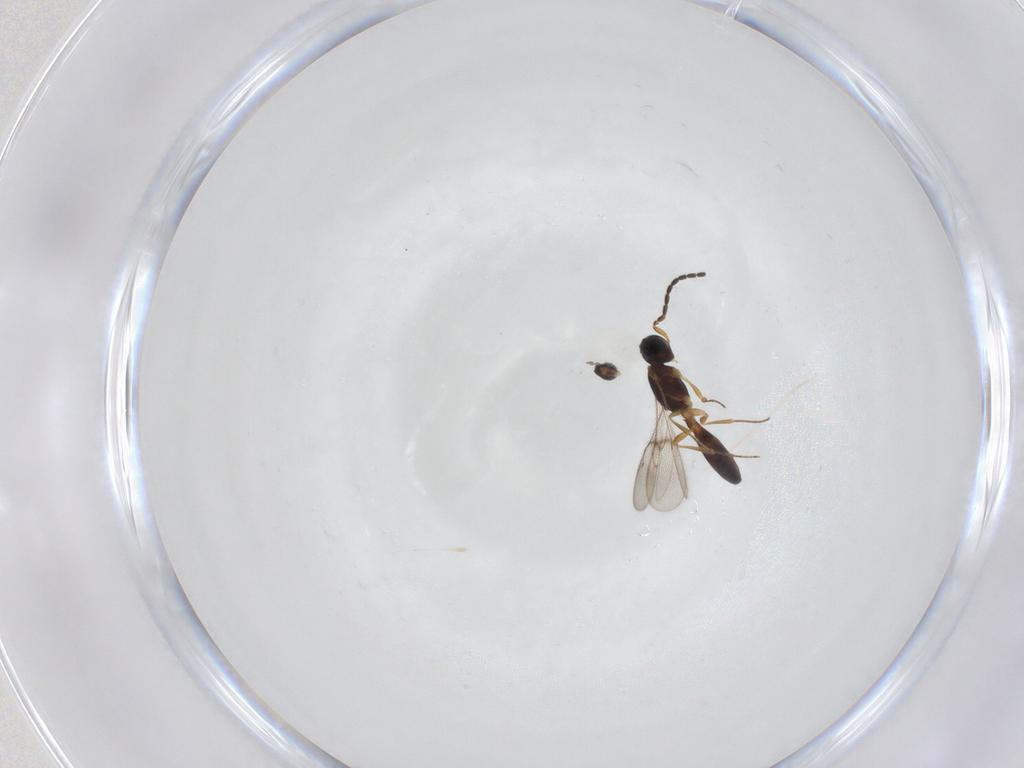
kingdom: Animalia
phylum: Arthropoda
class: Insecta
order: Hymenoptera
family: Scelionidae
